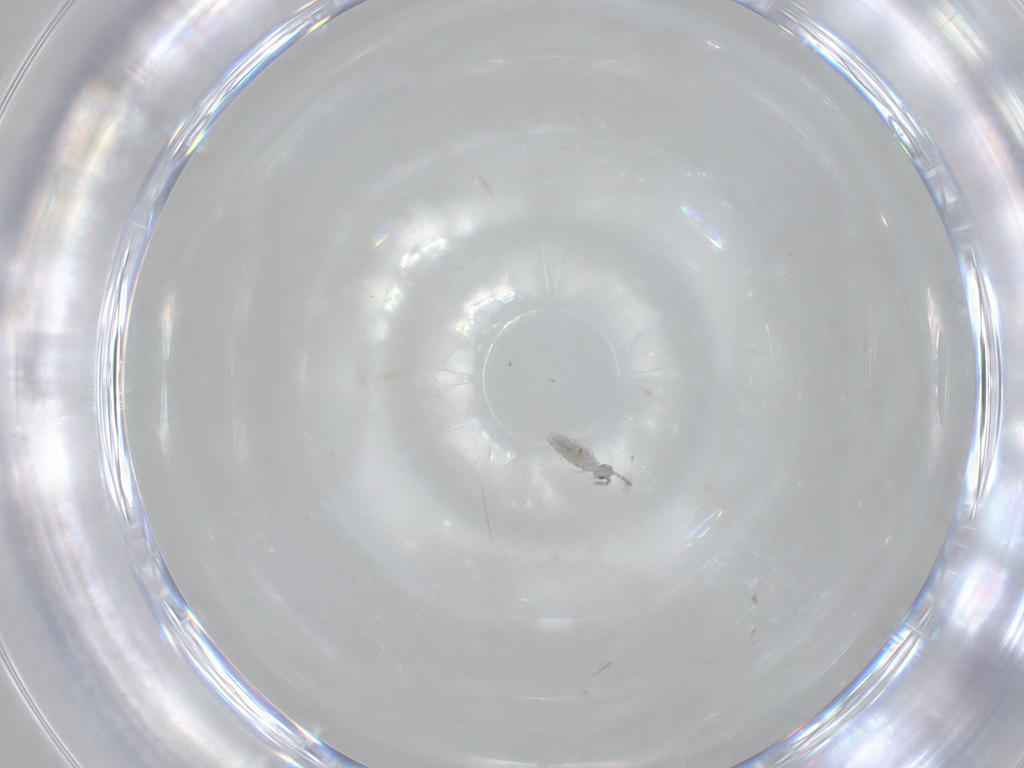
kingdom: Animalia
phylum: Arthropoda
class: Collembola
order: Entomobryomorpha
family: Entomobryidae
